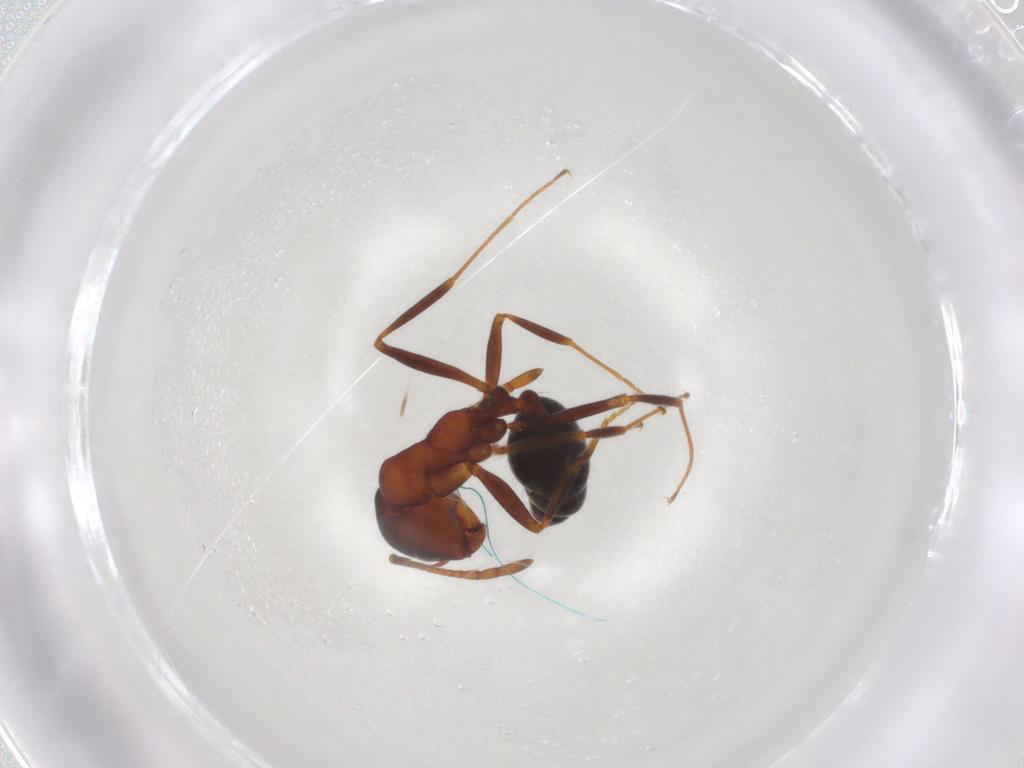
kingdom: Animalia
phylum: Arthropoda
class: Insecta
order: Hymenoptera
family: Formicidae
